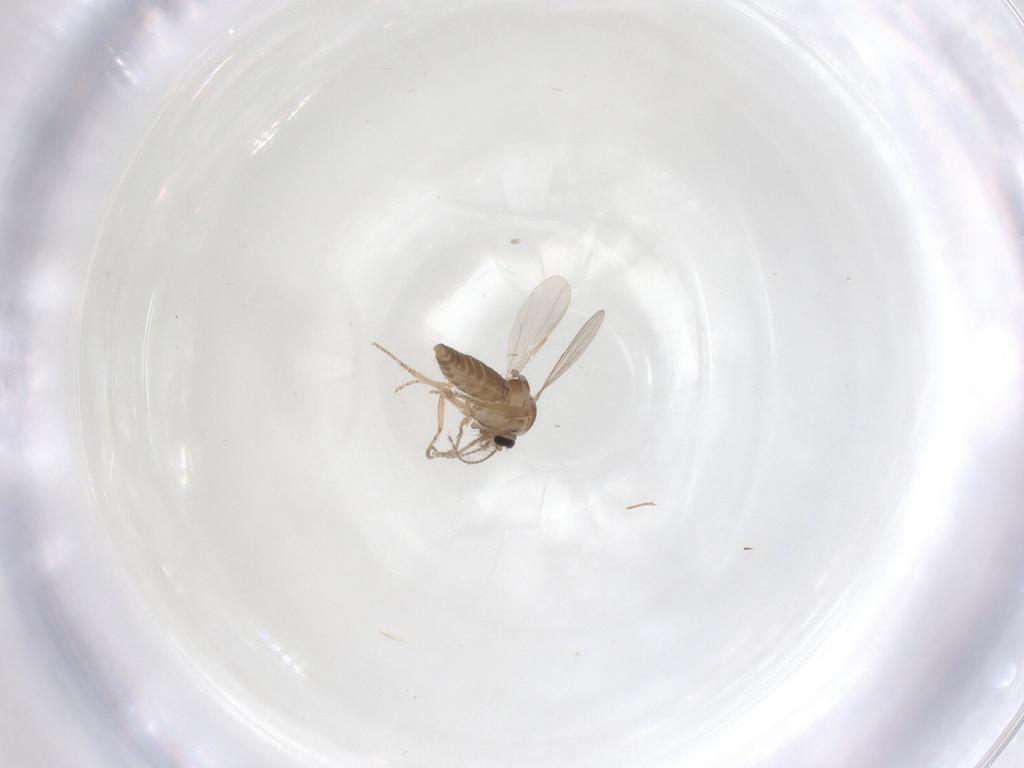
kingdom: Animalia
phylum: Arthropoda
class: Insecta
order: Diptera
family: Ceratopogonidae
